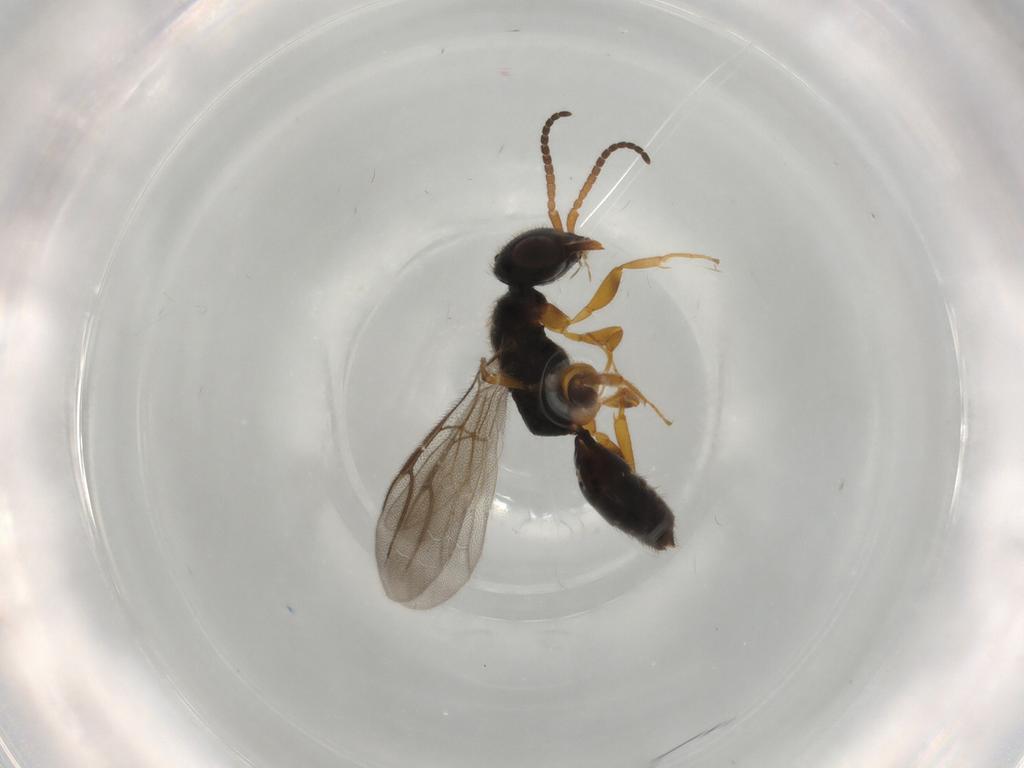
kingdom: Animalia
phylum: Arthropoda
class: Insecta
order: Hymenoptera
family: Bethylidae
